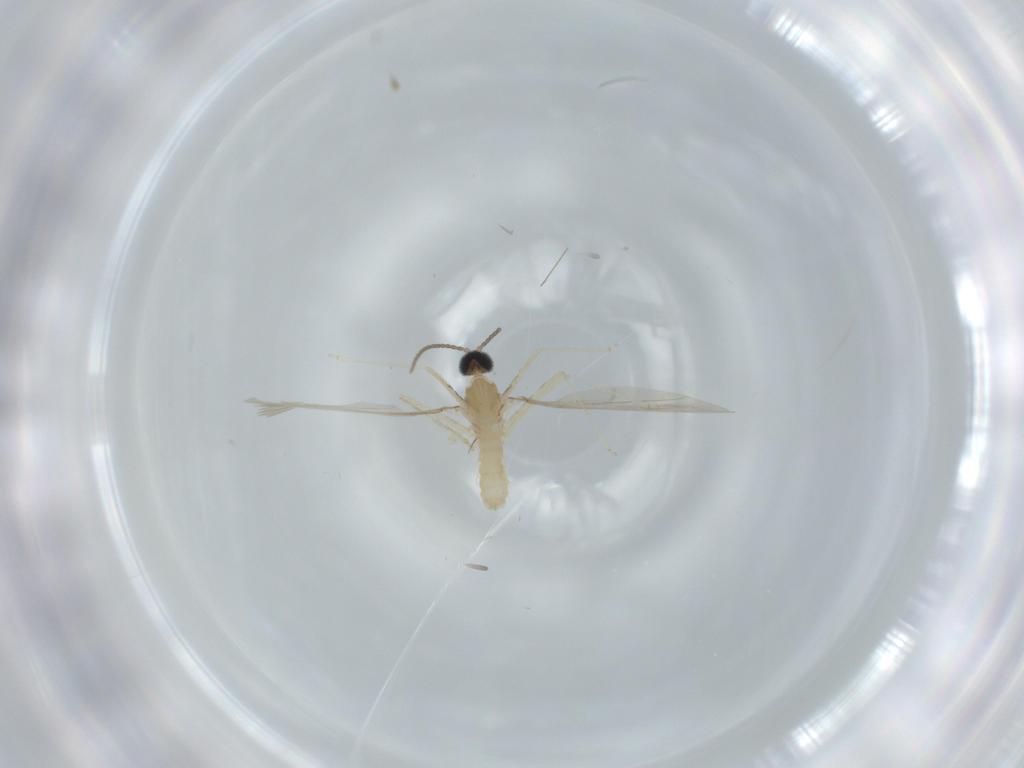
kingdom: Animalia
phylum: Arthropoda
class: Insecta
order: Diptera
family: Cecidomyiidae
